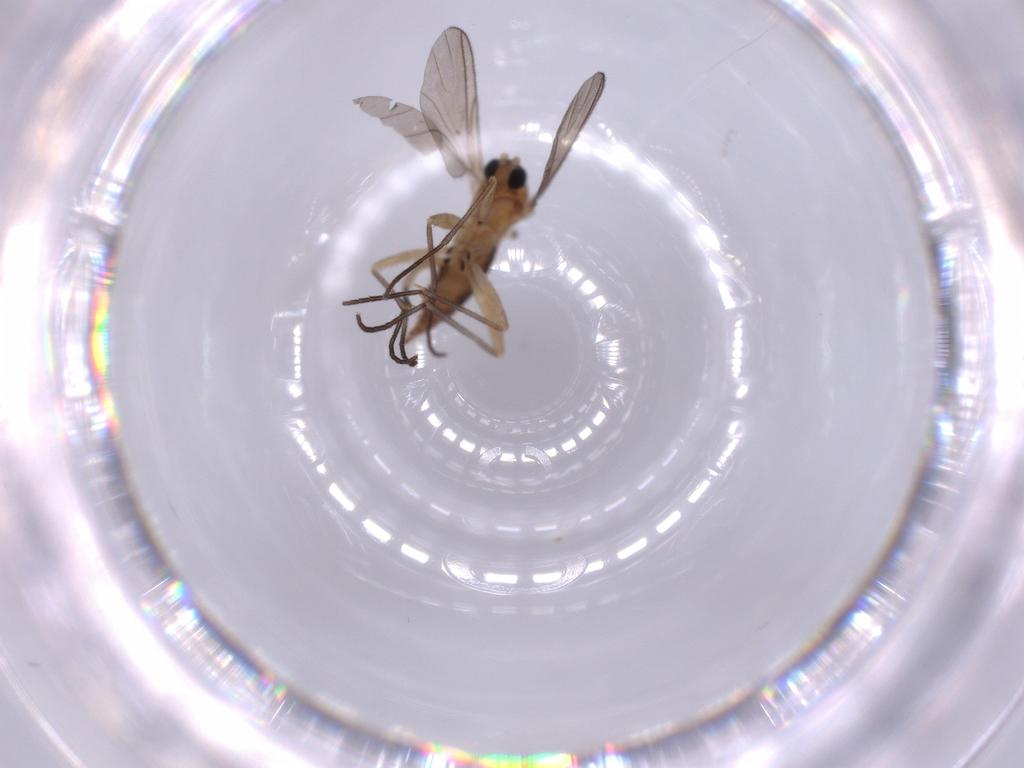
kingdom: Animalia
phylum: Arthropoda
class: Insecta
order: Diptera
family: Sciaridae
